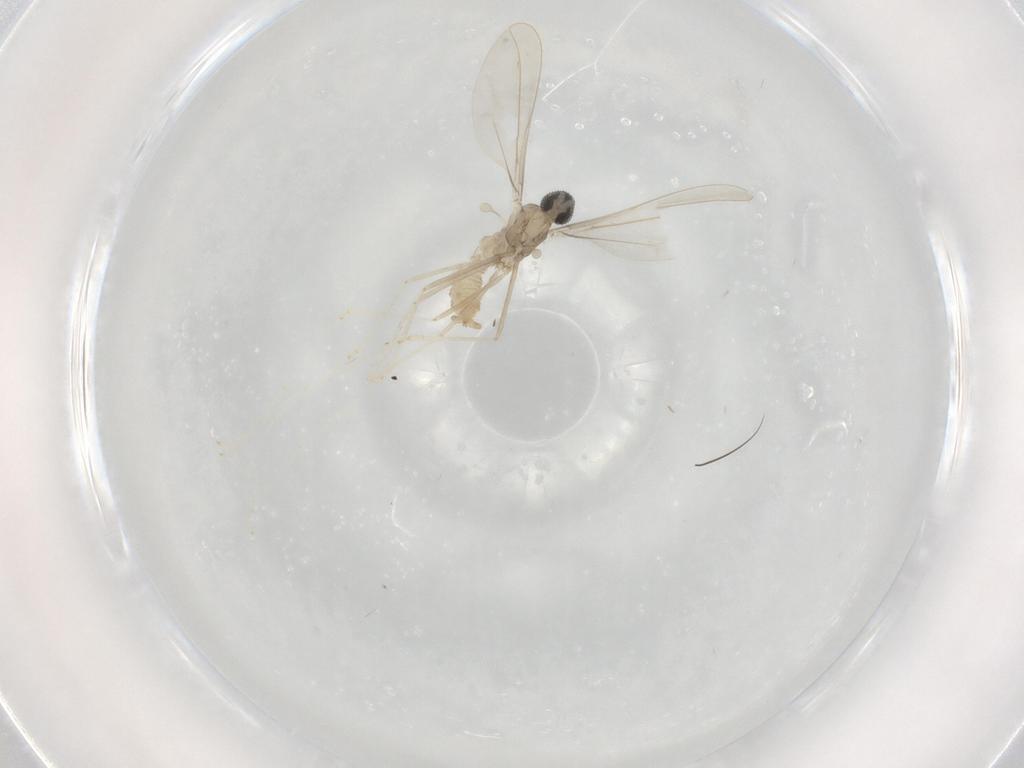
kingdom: Animalia
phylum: Arthropoda
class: Insecta
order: Diptera
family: Cecidomyiidae
